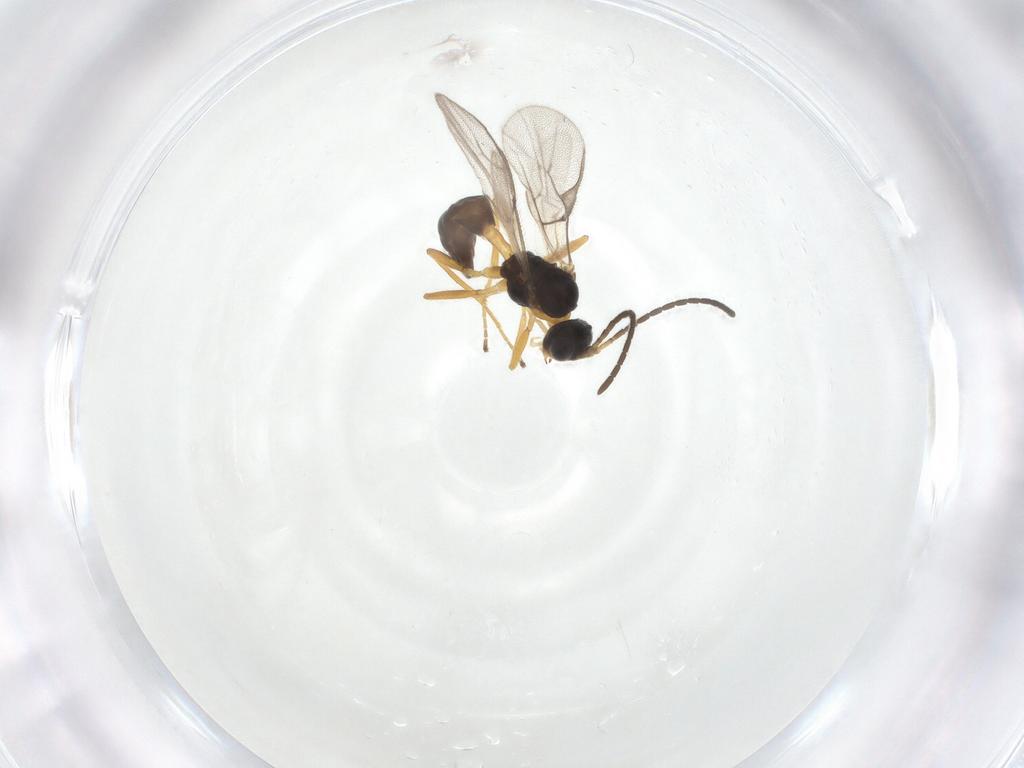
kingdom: Animalia
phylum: Arthropoda
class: Insecta
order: Hymenoptera
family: Braconidae
